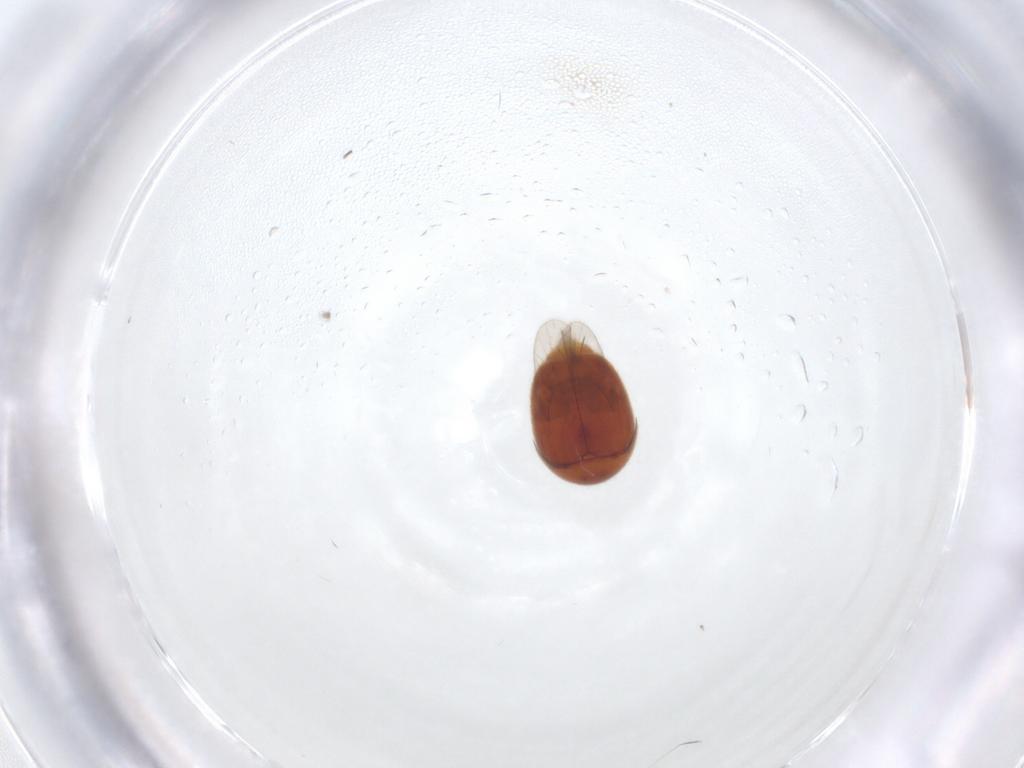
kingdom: Animalia
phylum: Arthropoda
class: Insecta
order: Coleoptera
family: Corylophidae
